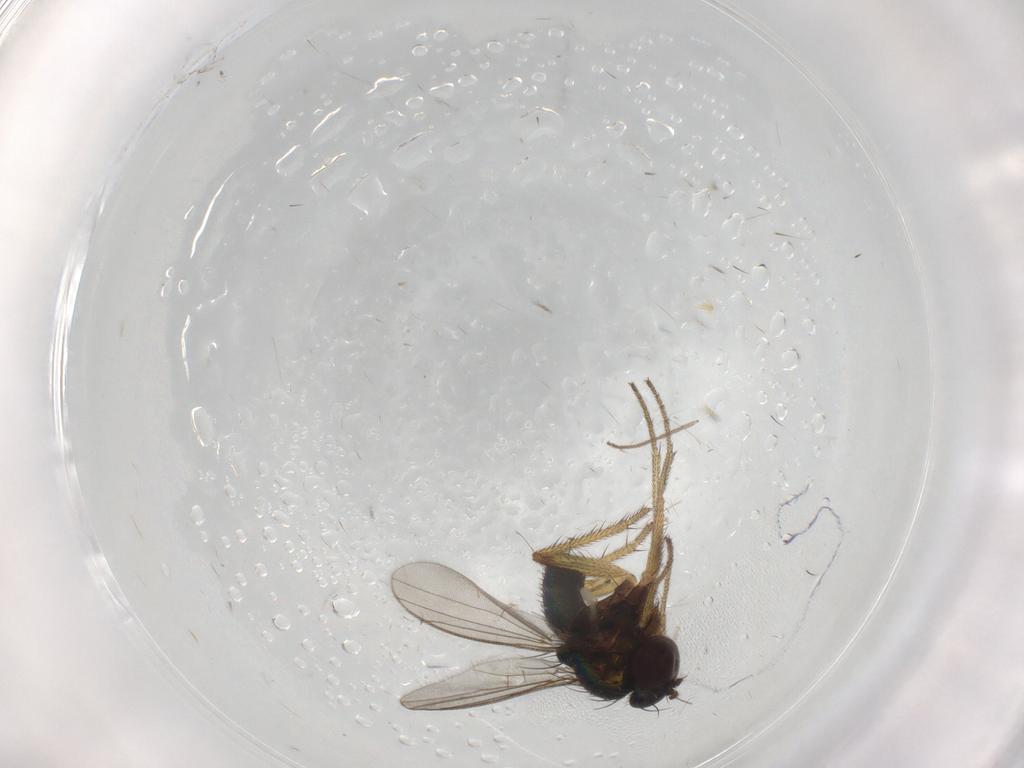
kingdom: Animalia
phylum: Arthropoda
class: Insecta
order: Diptera
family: Chironomidae
